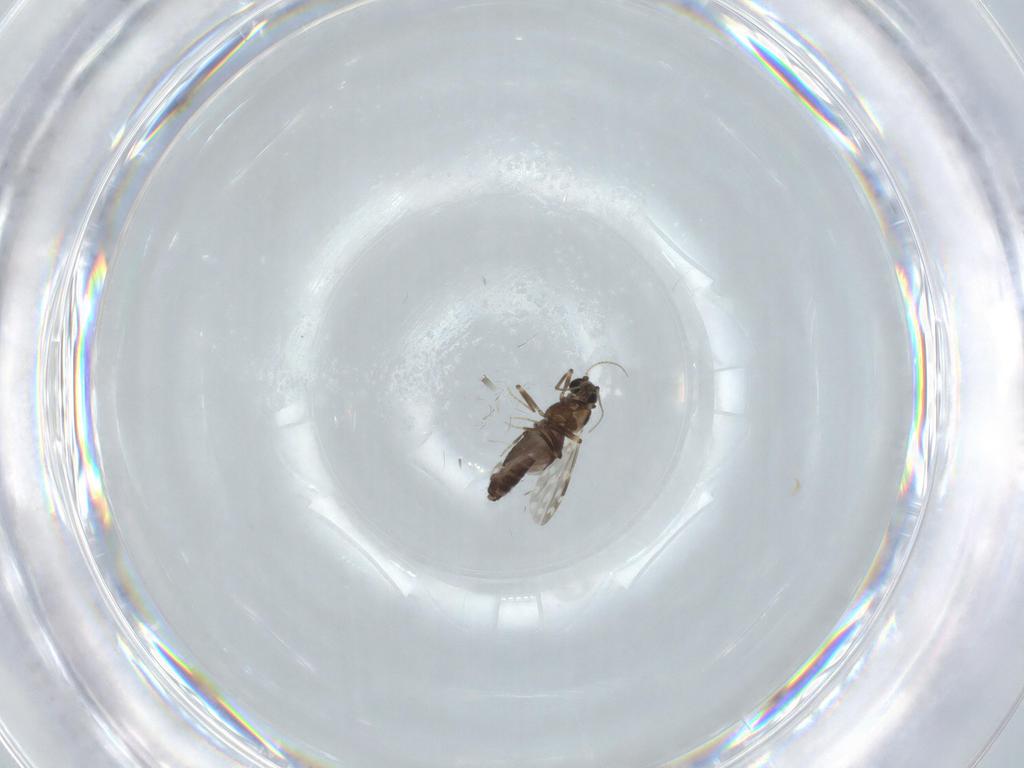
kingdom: Animalia
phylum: Arthropoda
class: Insecta
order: Diptera
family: Ceratopogonidae
